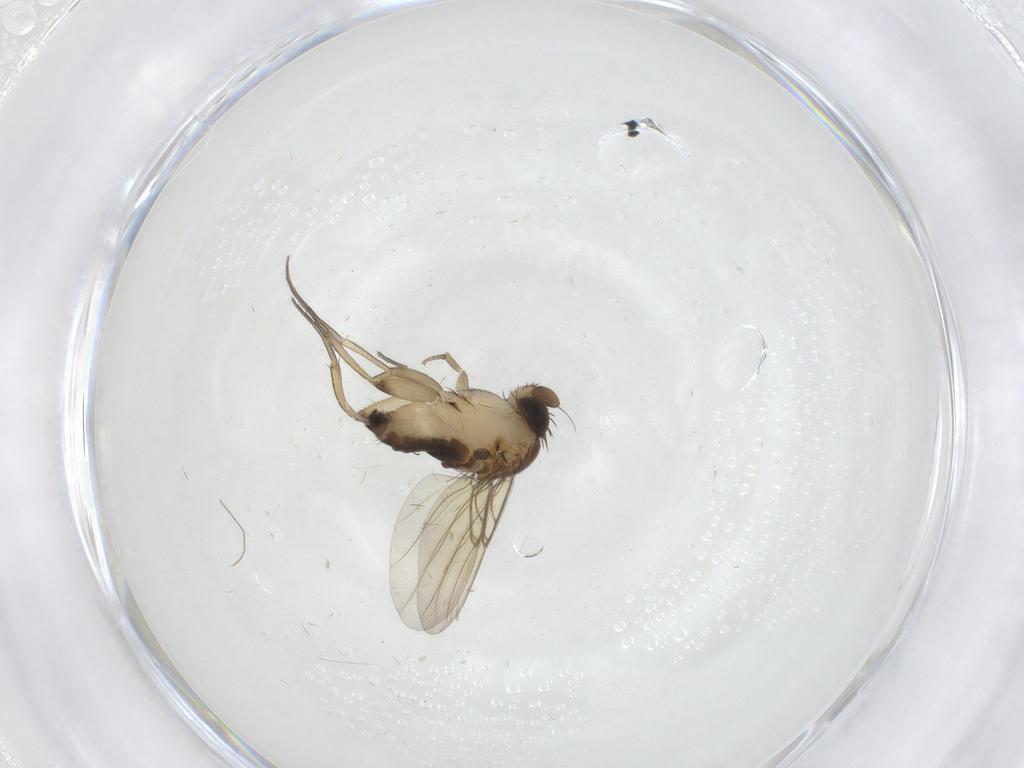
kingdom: Animalia
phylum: Arthropoda
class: Insecta
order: Diptera
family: Phoridae
